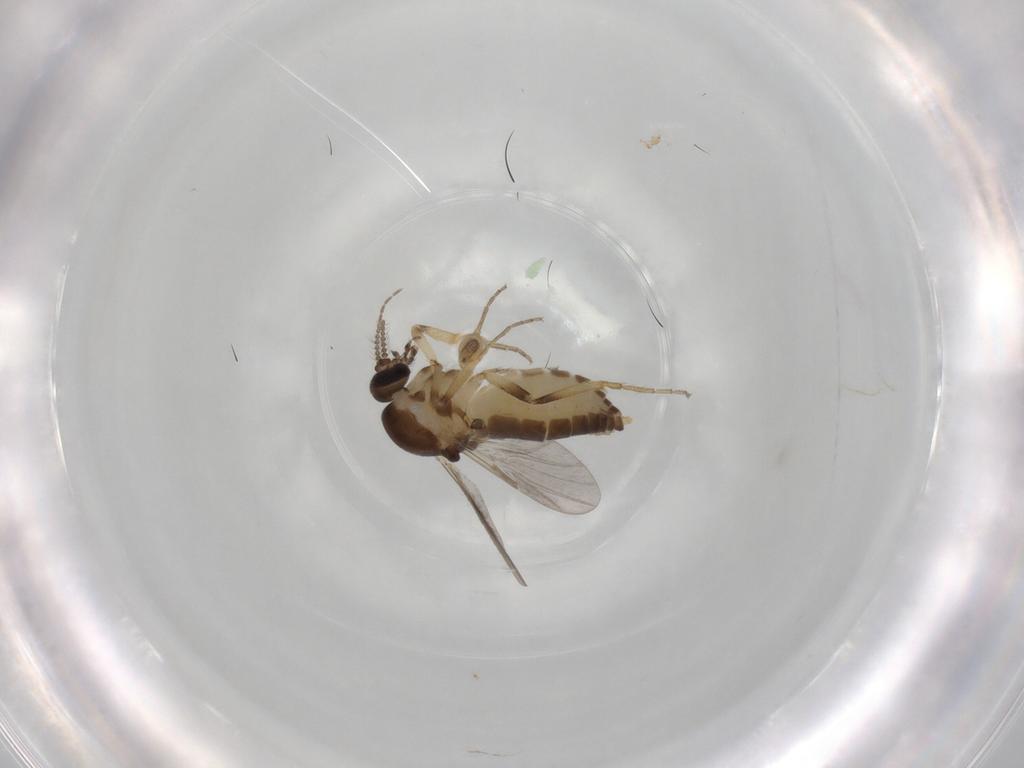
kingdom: Animalia
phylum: Arthropoda
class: Insecta
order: Diptera
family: Ceratopogonidae
